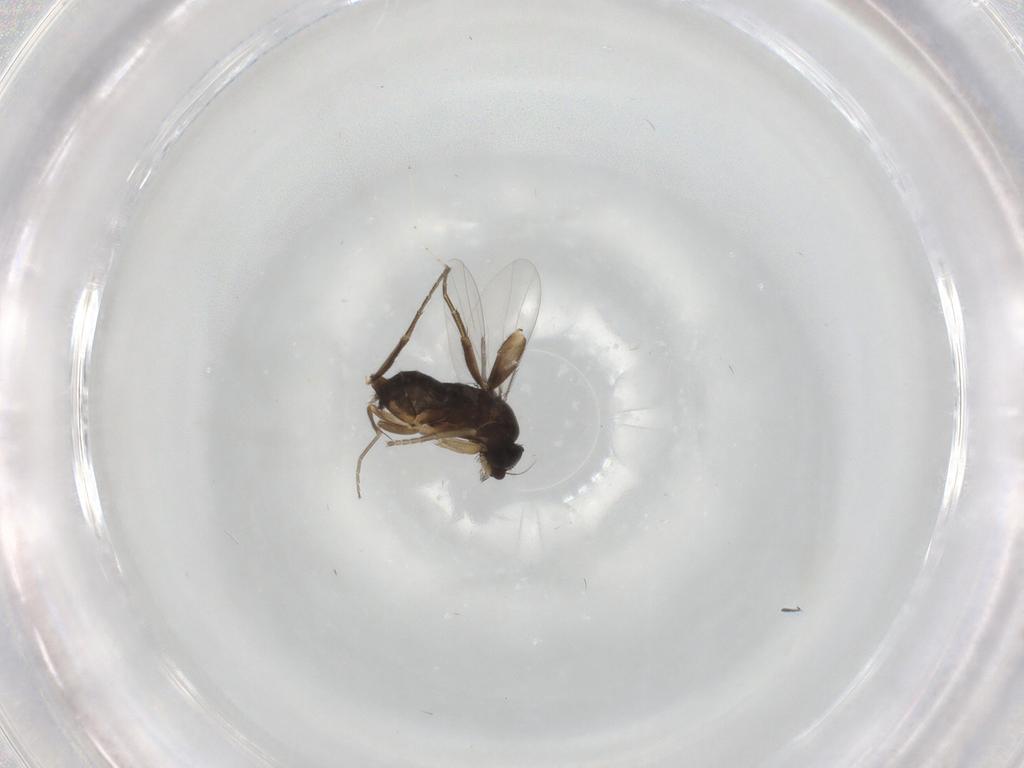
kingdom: Animalia
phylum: Arthropoda
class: Insecta
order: Diptera
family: Phoridae
